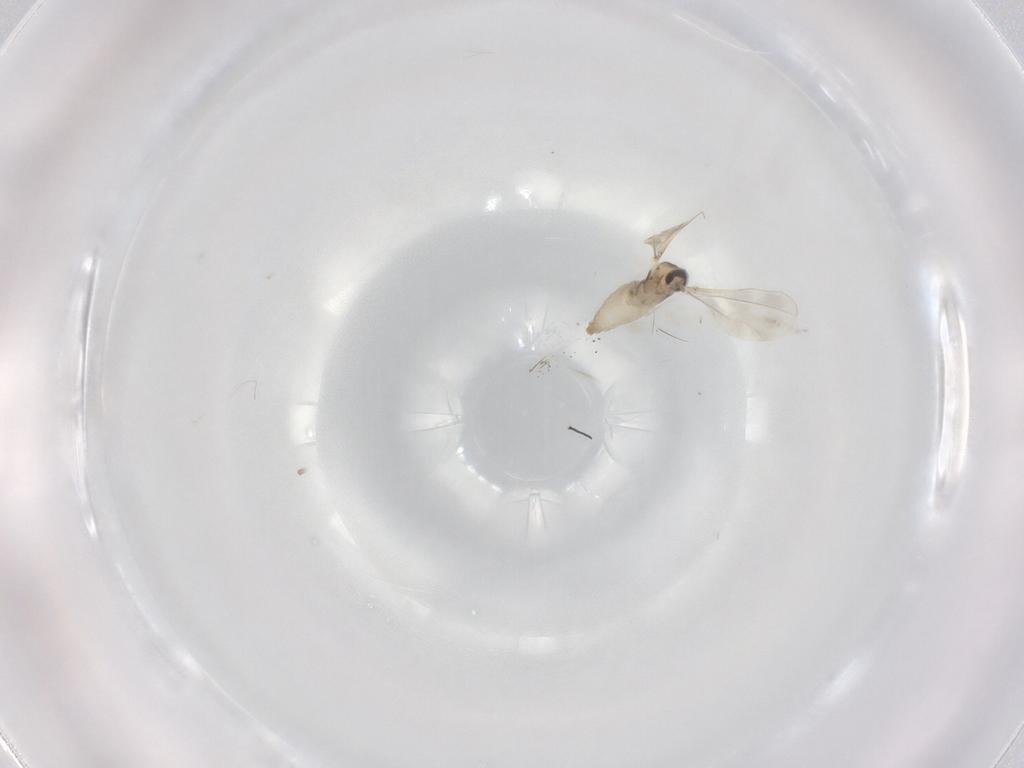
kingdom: Animalia
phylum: Arthropoda
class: Insecta
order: Diptera
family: Cecidomyiidae
